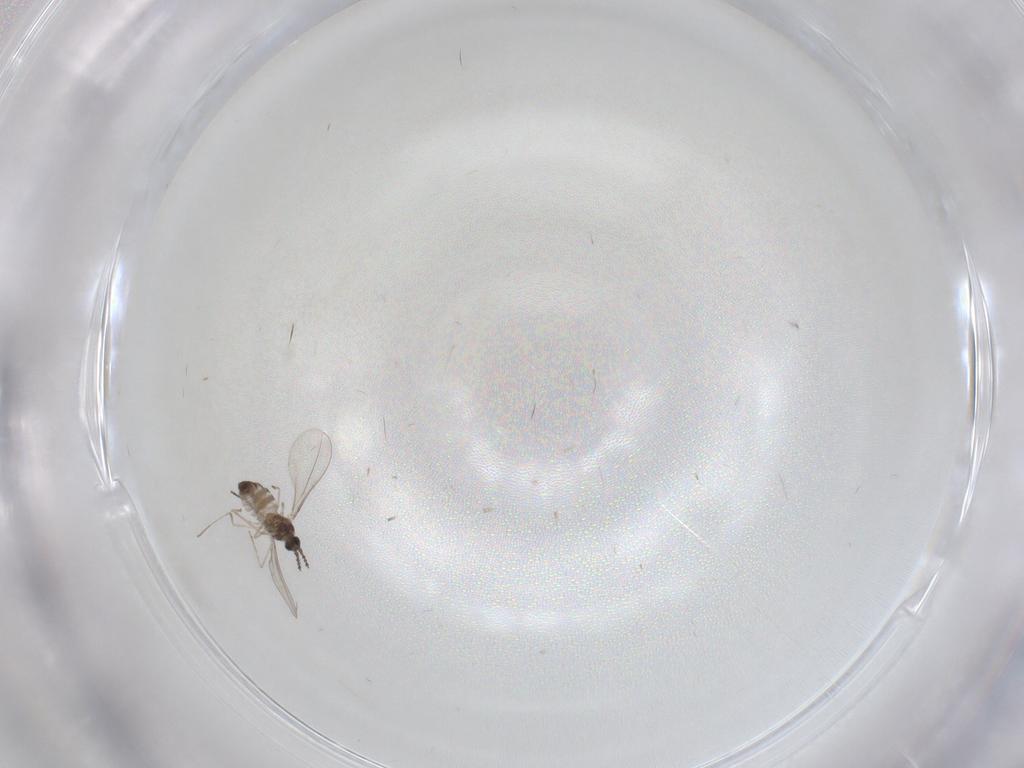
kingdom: Animalia
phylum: Arthropoda
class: Insecta
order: Diptera
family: Cecidomyiidae
